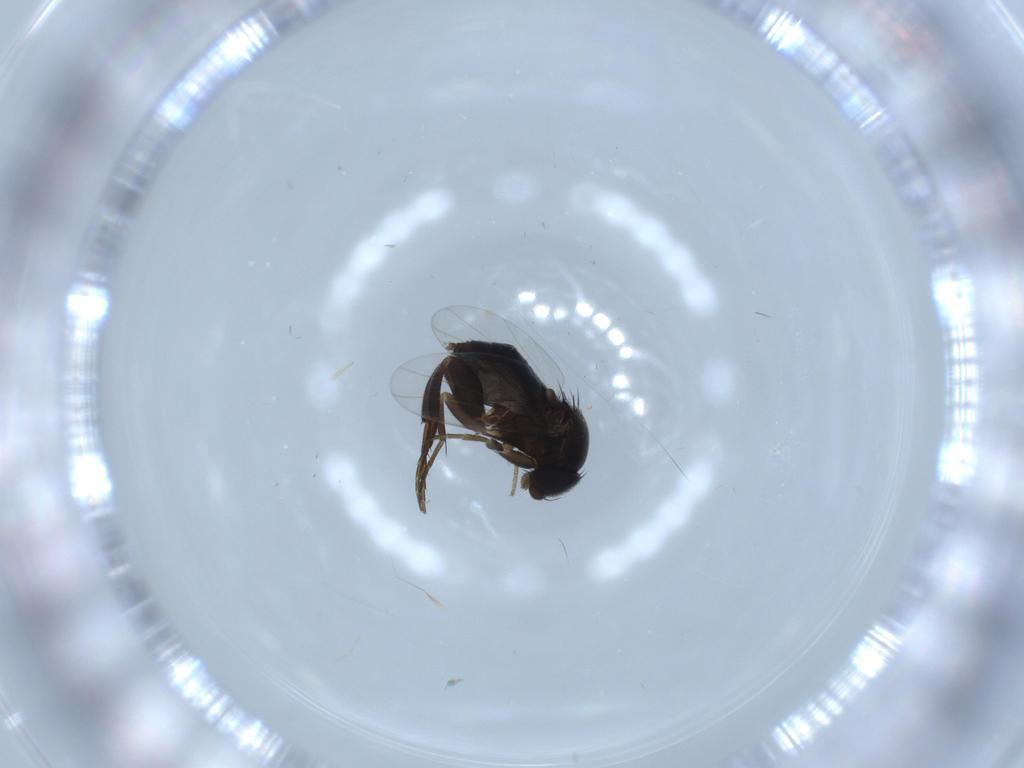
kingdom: Animalia
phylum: Arthropoda
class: Insecta
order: Diptera
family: Phoridae
